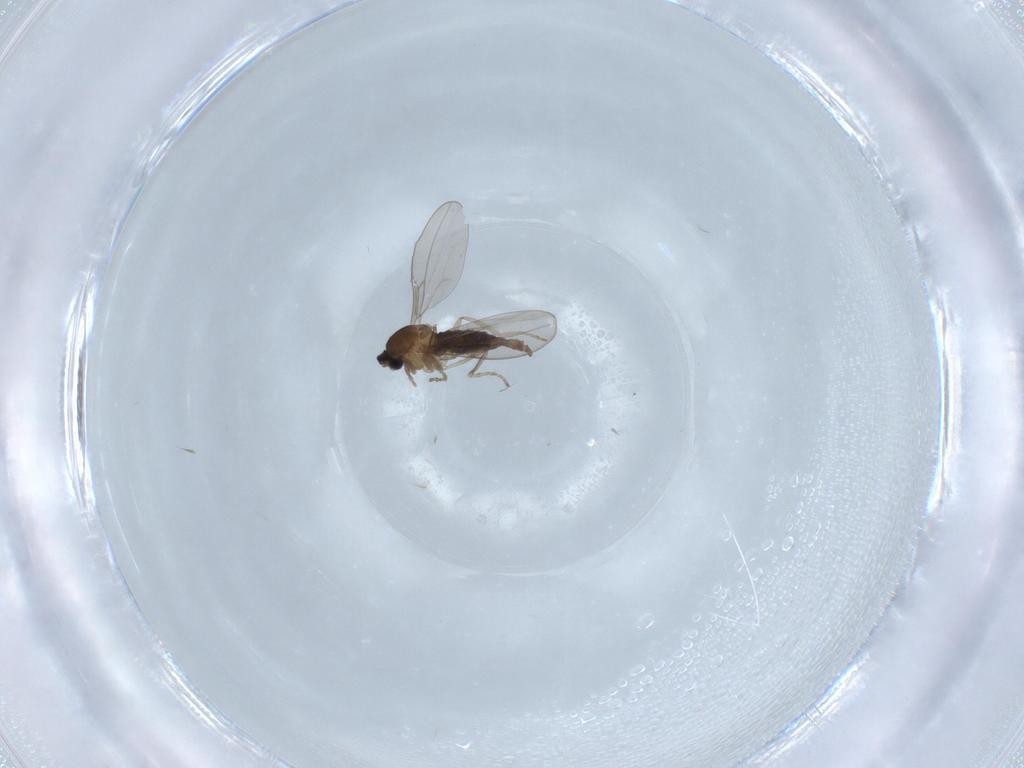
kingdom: Animalia
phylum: Arthropoda
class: Insecta
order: Diptera
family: Cecidomyiidae
